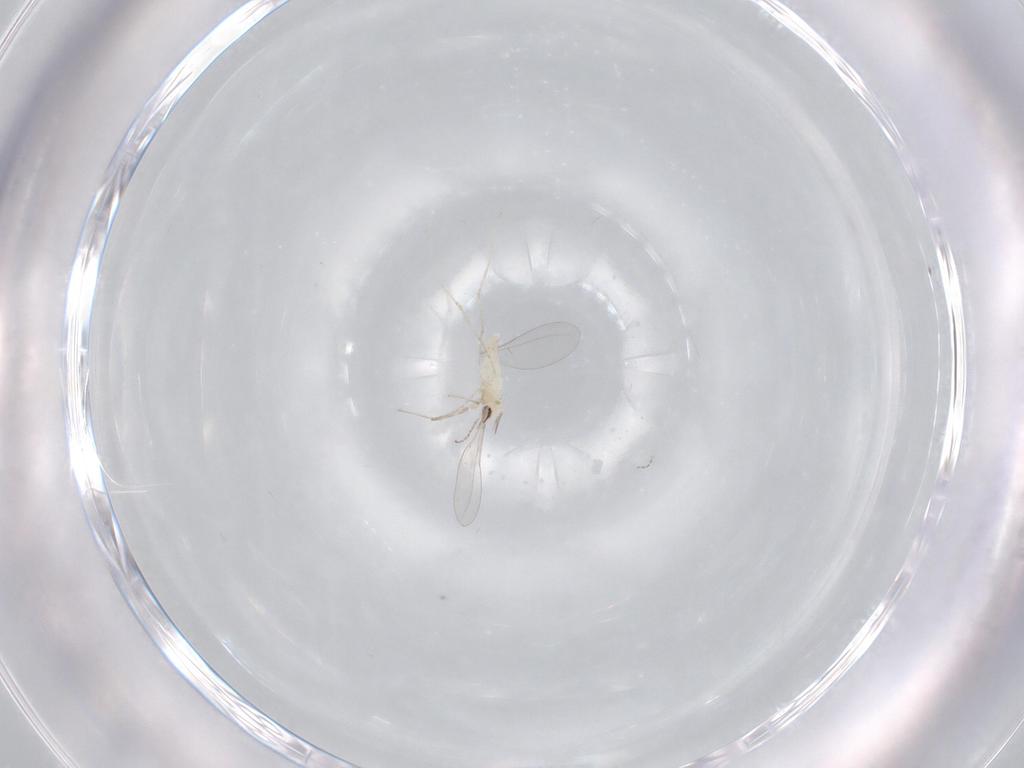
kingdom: Animalia
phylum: Arthropoda
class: Insecta
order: Diptera
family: Cecidomyiidae
